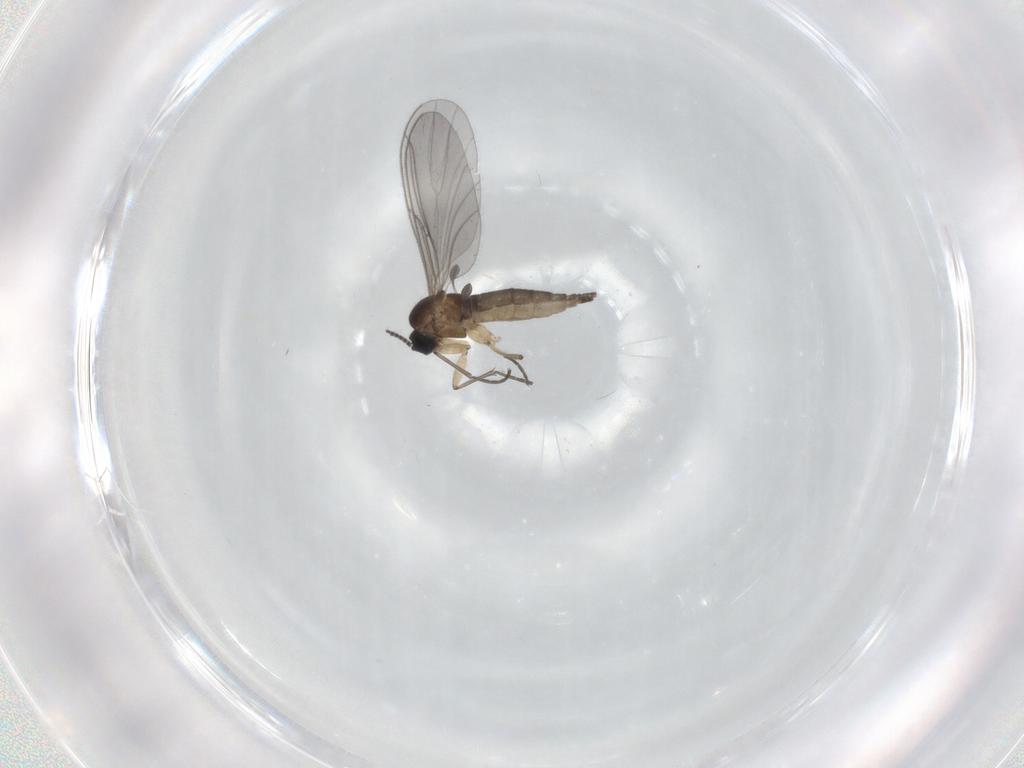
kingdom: Animalia
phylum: Arthropoda
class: Insecta
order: Diptera
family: Sciaridae
